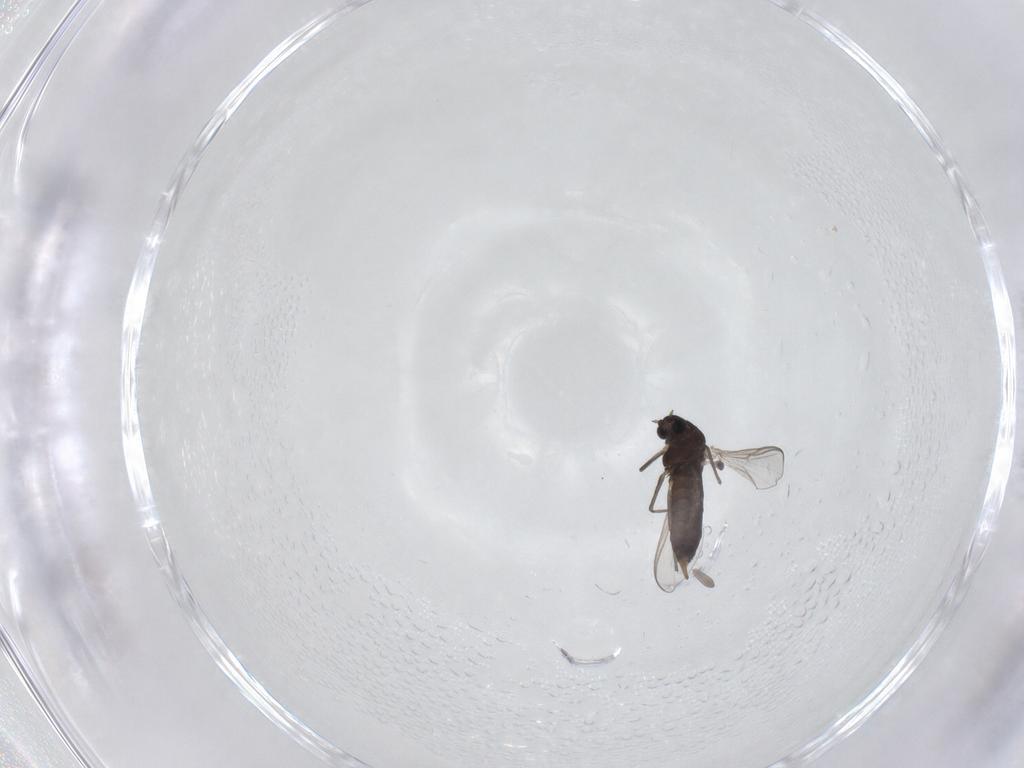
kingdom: Animalia
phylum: Arthropoda
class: Insecta
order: Diptera
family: Chironomidae
